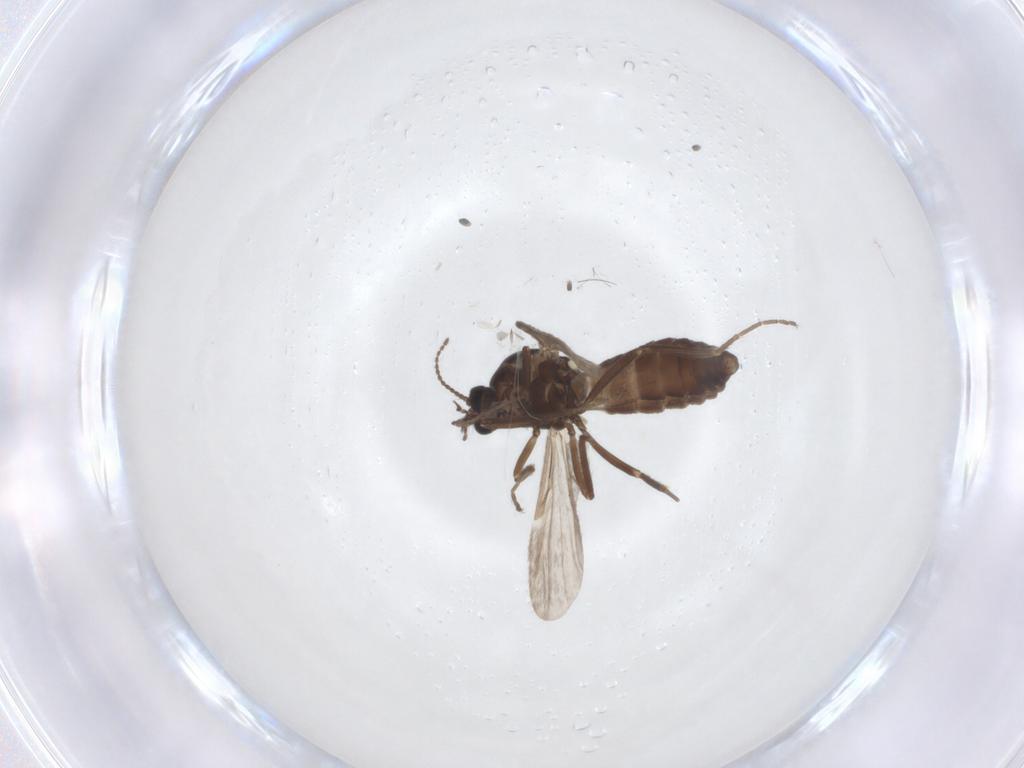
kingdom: Animalia
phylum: Arthropoda
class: Insecta
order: Diptera
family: Ceratopogonidae
